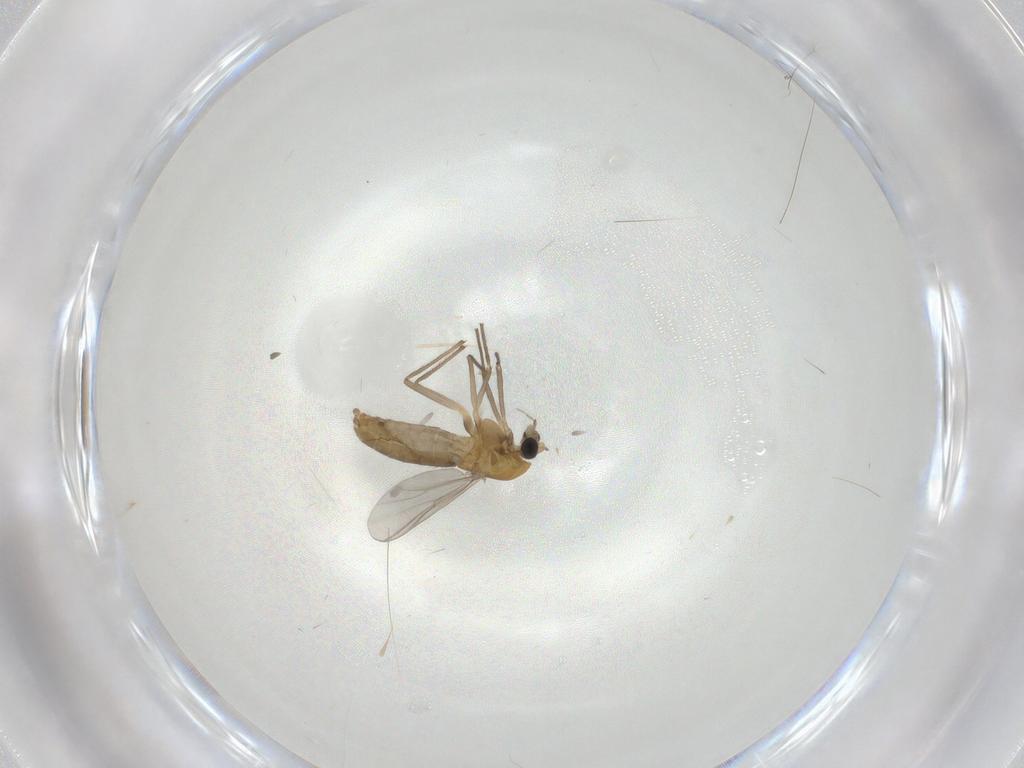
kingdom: Animalia
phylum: Arthropoda
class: Insecta
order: Diptera
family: Chironomidae
